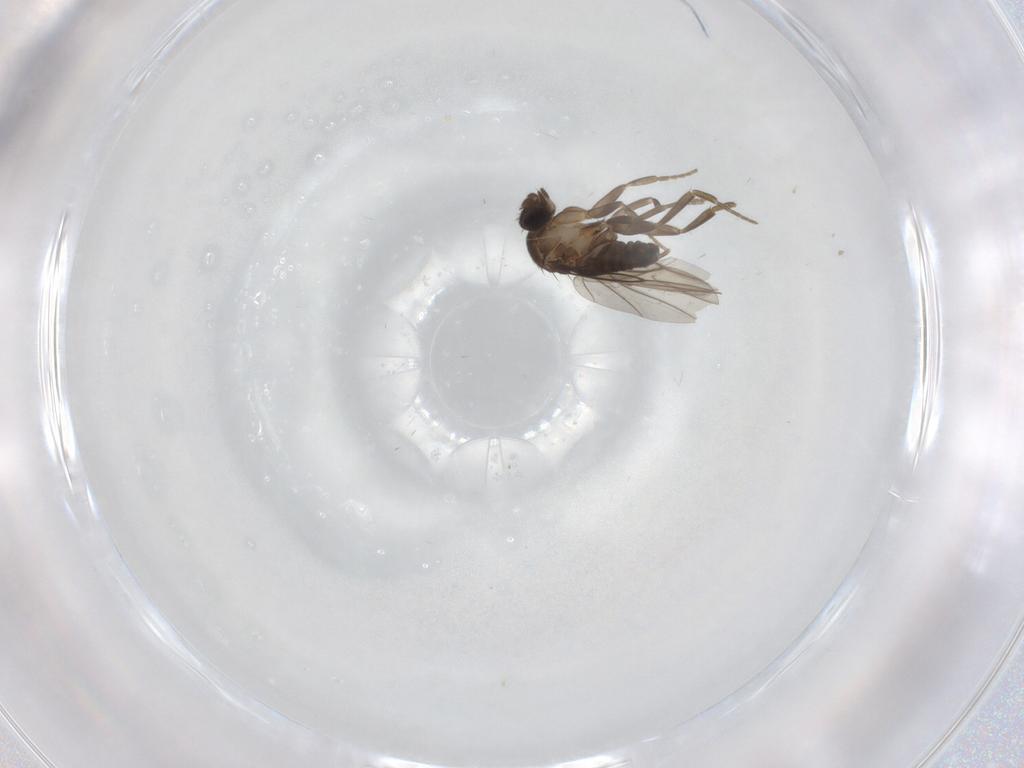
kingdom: Animalia
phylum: Arthropoda
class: Insecta
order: Diptera
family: Phoridae
